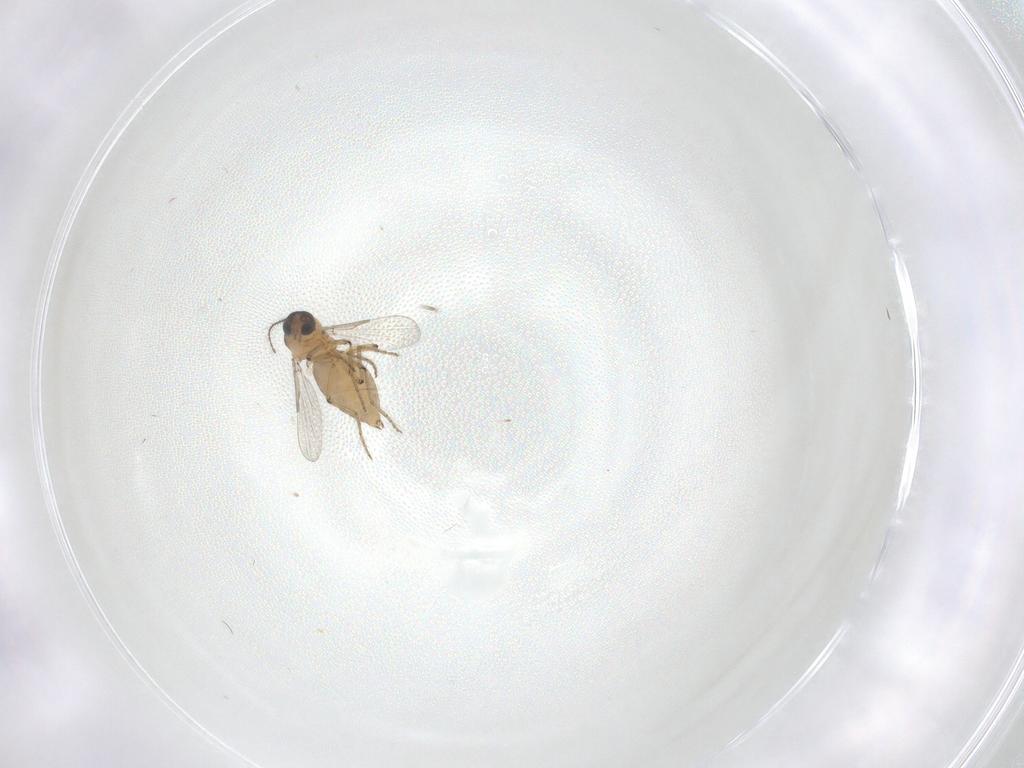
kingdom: Animalia
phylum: Arthropoda
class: Insecta
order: Diptera
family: Ceratopogonidae
